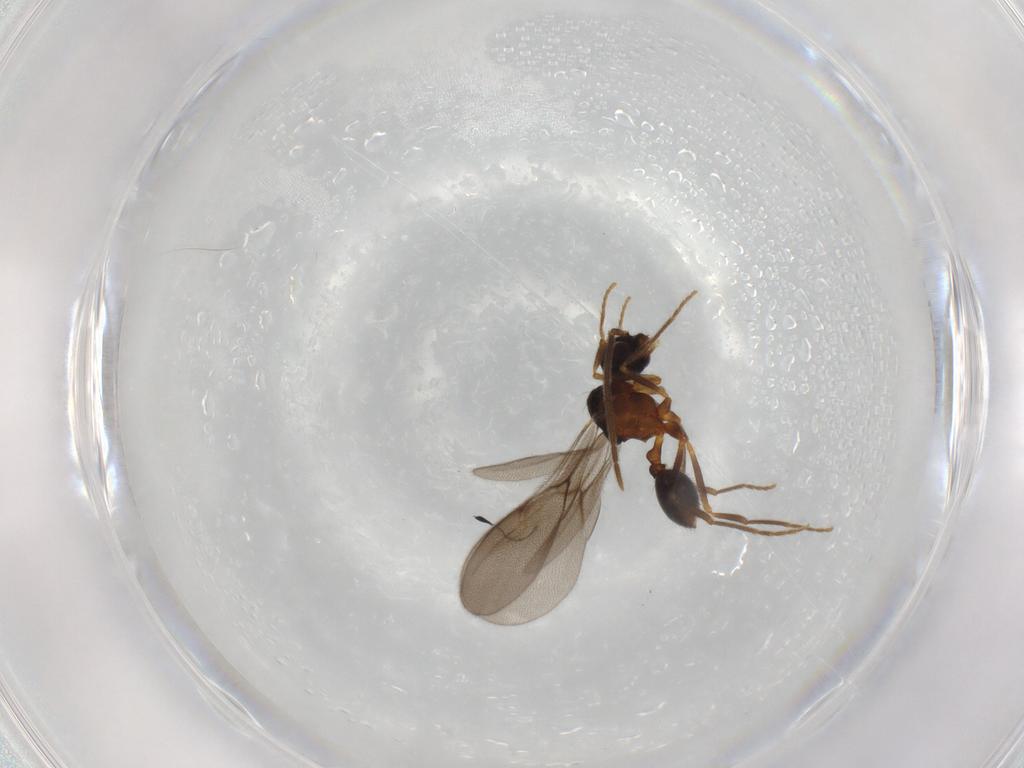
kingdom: Animalia
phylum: Arthropoda
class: Insecta
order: Hymenoptera
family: Formicidae
